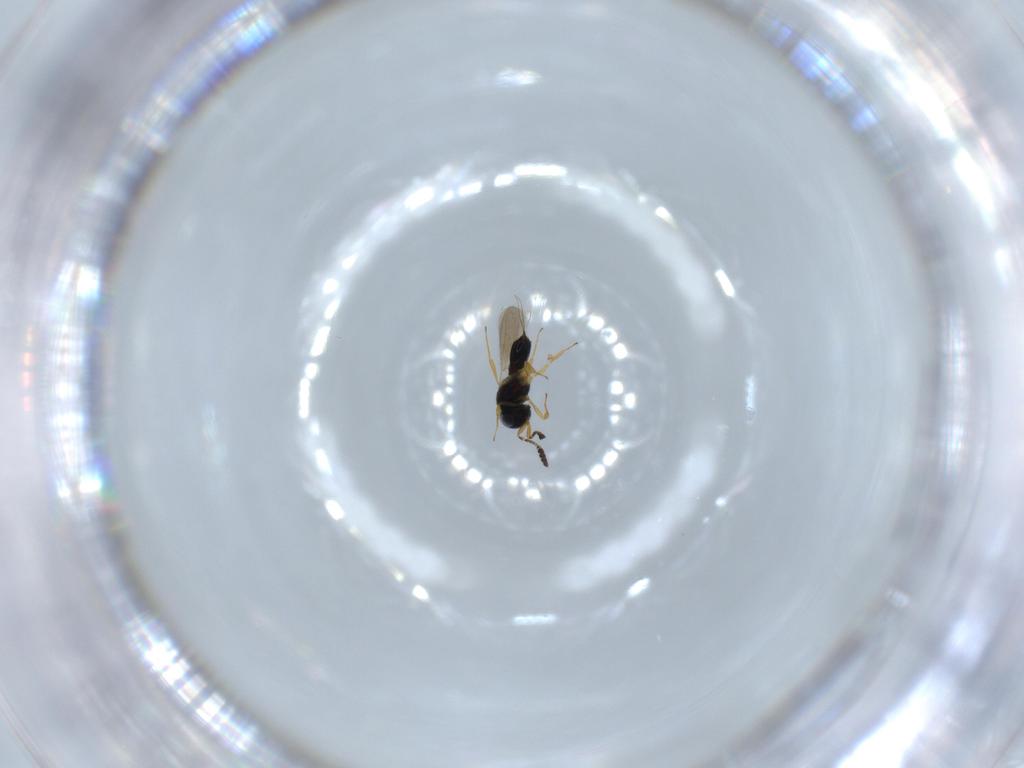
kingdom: Animalia
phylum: Arthropoda
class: Insecta
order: Hymenoptera
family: Scelionidae
